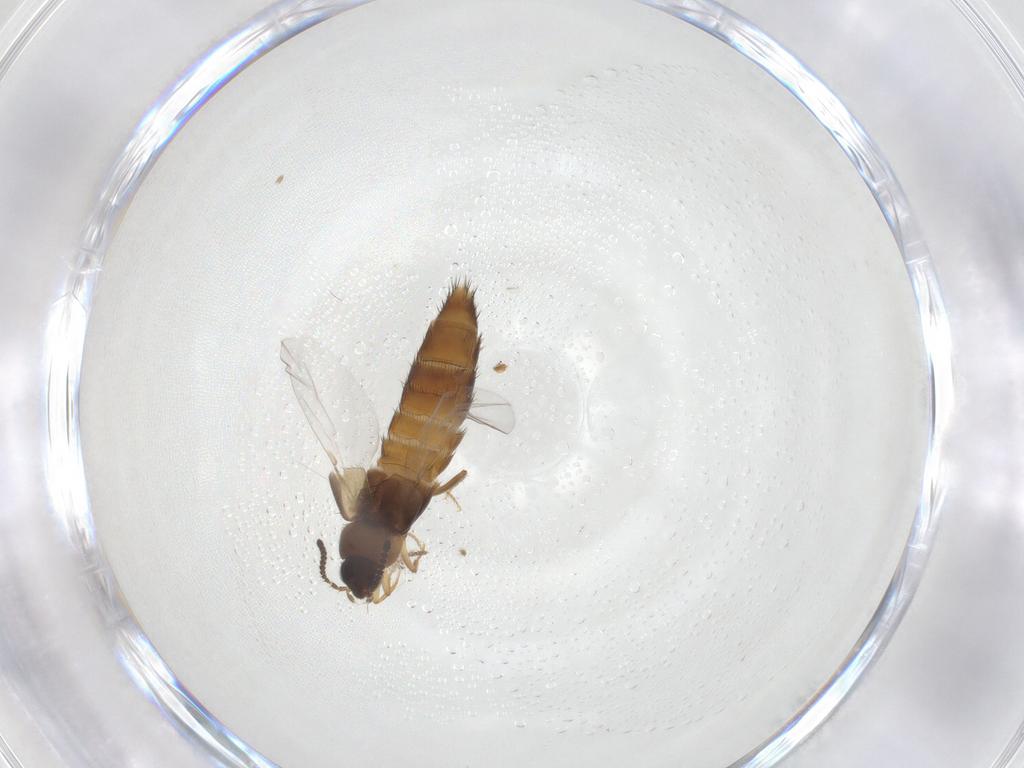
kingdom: Animalia
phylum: Arthropoda
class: Insecta
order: Coleoptera
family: Staphylinidae
